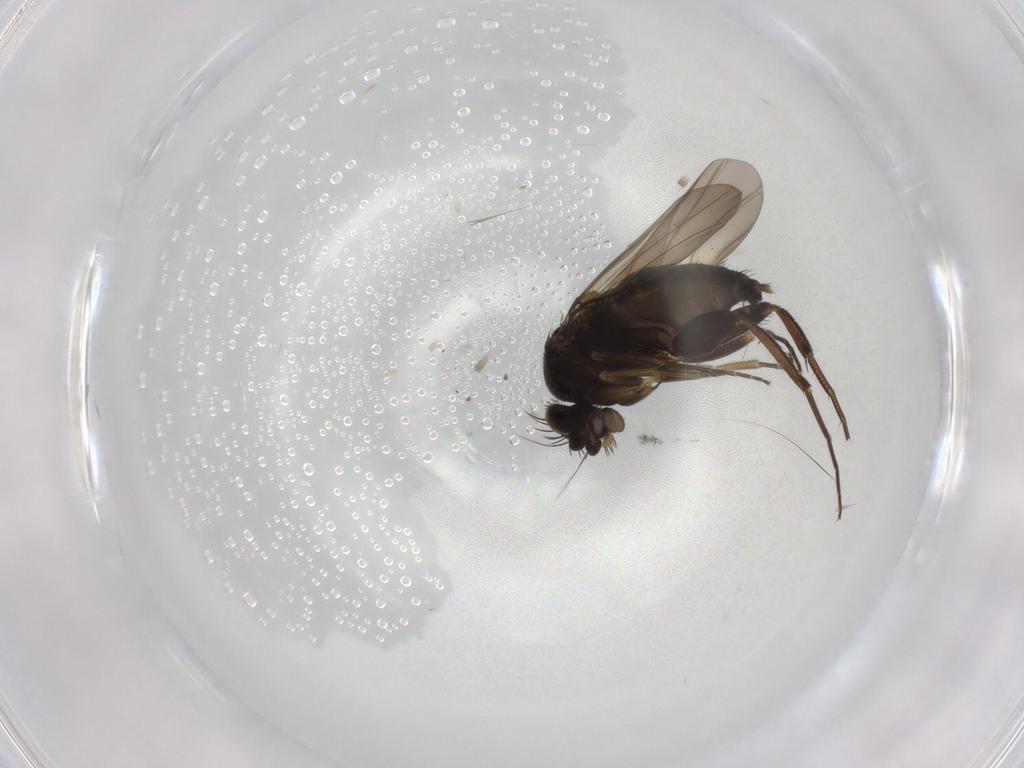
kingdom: Animalia
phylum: Arthropoda
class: Insecta
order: Diptera
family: Phoridae
